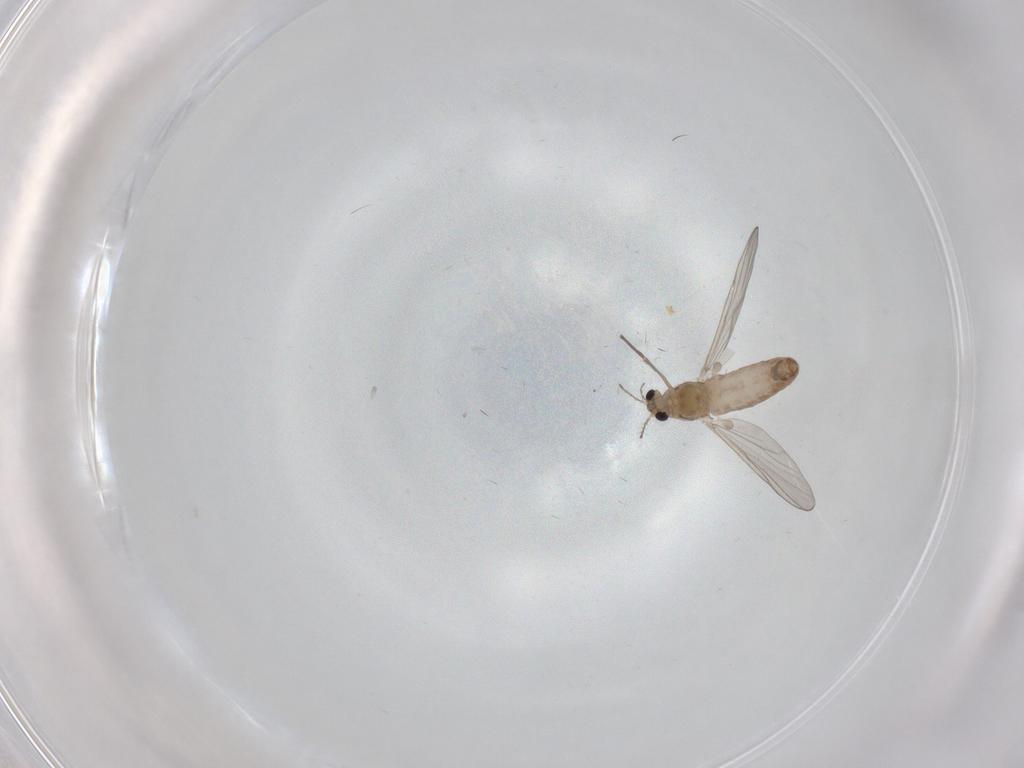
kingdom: Animalia
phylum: Arthropoda
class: Insecta
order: Diptera
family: Chironomidae
